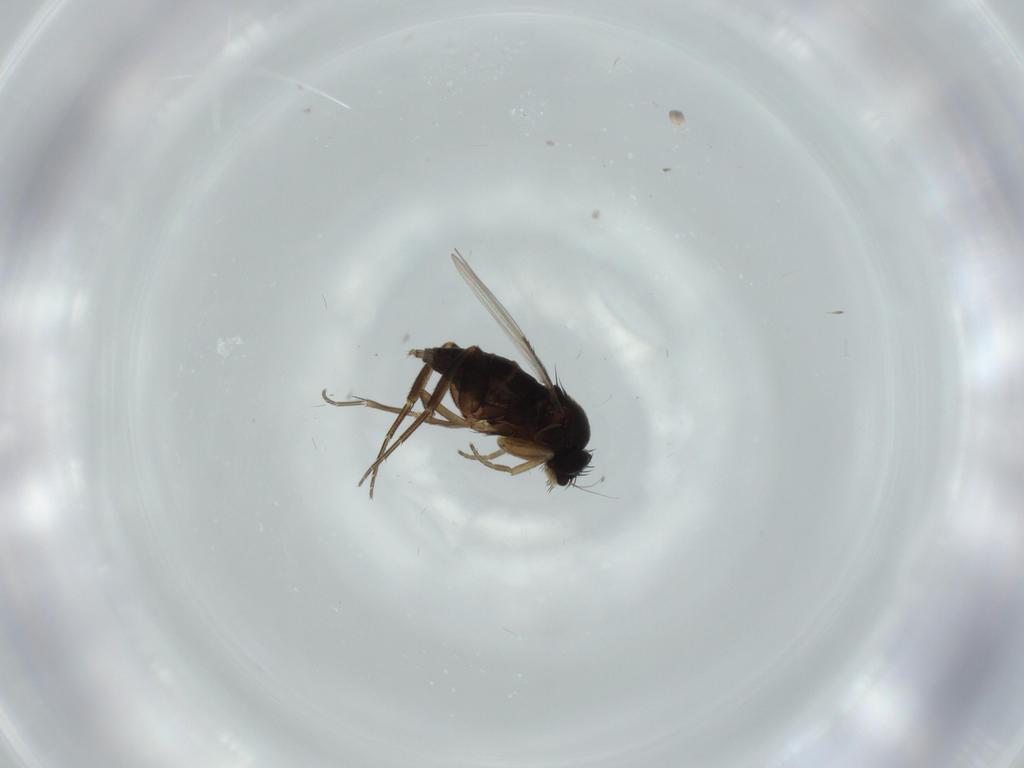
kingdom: Animalia
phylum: Arthropoda
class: Insecta
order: Diptera
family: Phoridae
